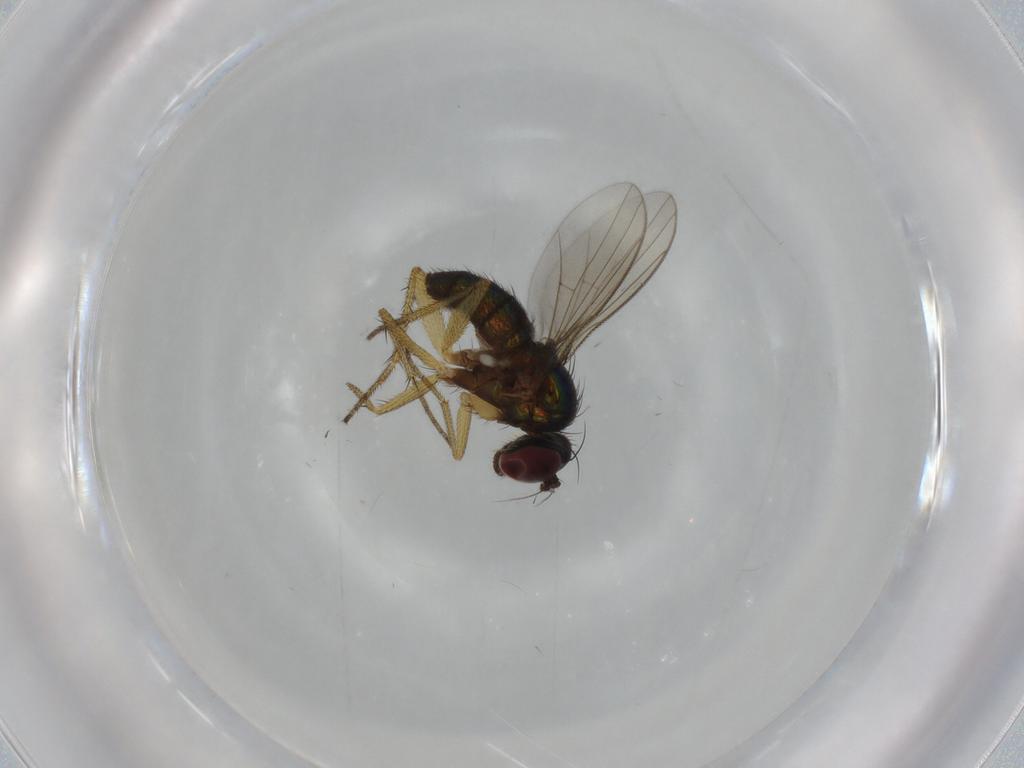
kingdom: Animalia
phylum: Arthropoda
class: Insecta
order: Diptera
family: Dolichopodidae
